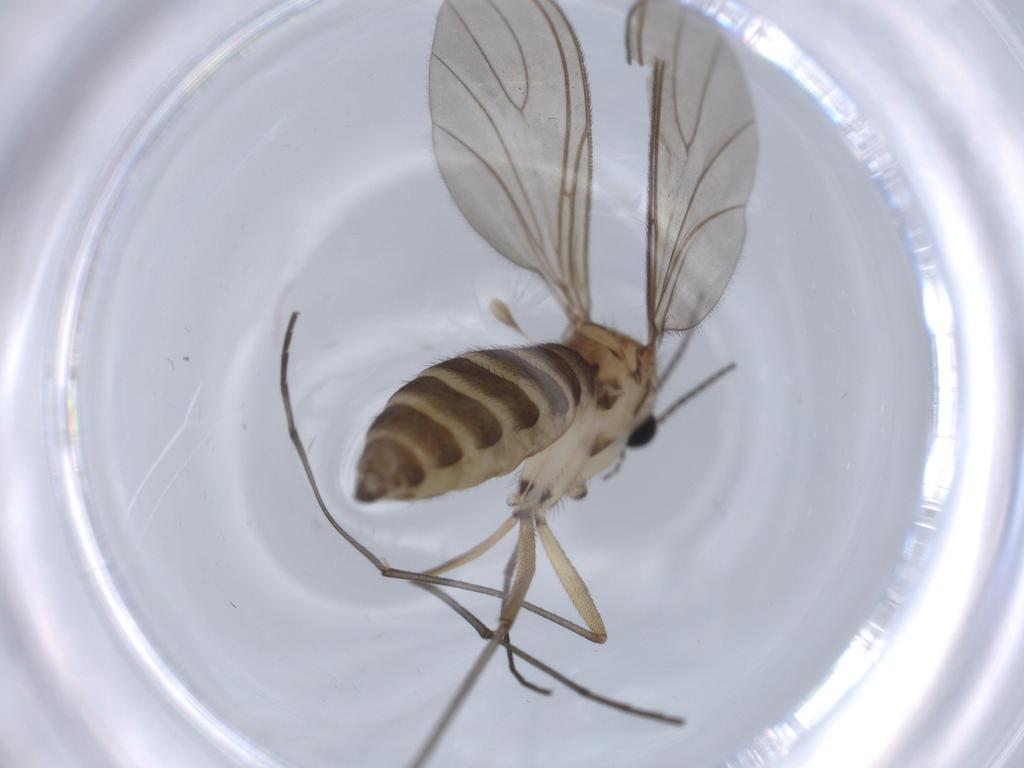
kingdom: Animalia
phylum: Arthropoda
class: Insecta
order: Diptera
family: Sciaridae
